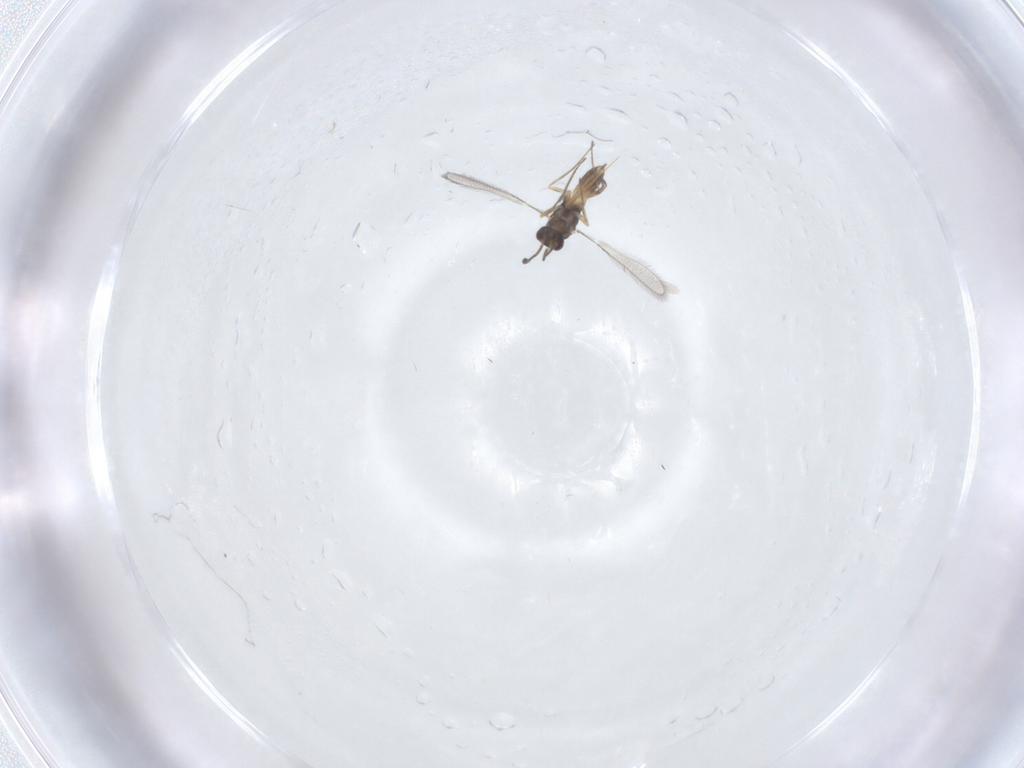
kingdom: Animalia
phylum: Arthropoda
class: Insecta
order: Hymenoptera
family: Mymaridae
